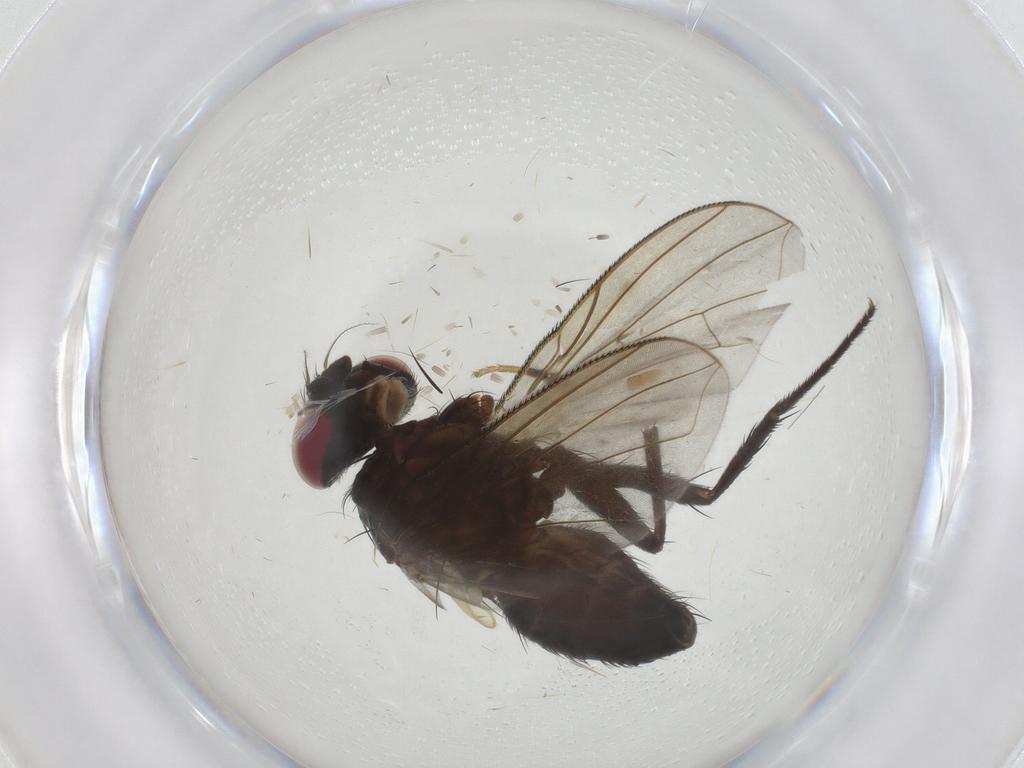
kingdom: Animalia
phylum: Arthropoda
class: Insecta
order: Diptera
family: Tachinidae
